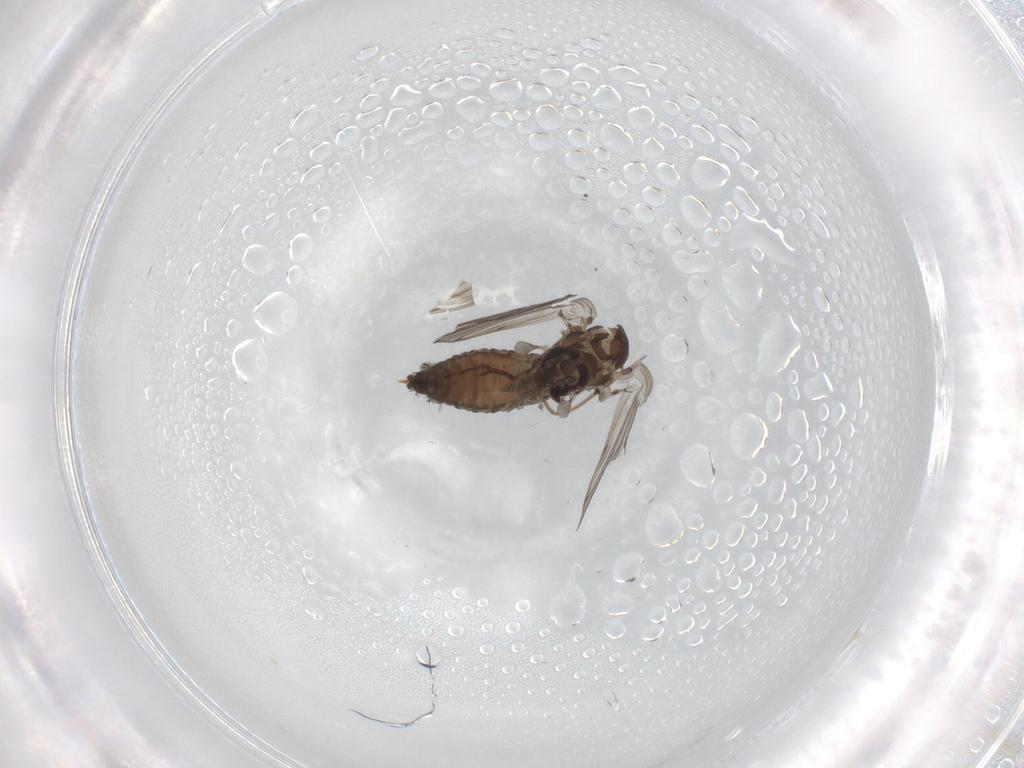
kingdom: Animalia
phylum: Arthropoda
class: Insecta
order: Diptera
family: Psychodidae
